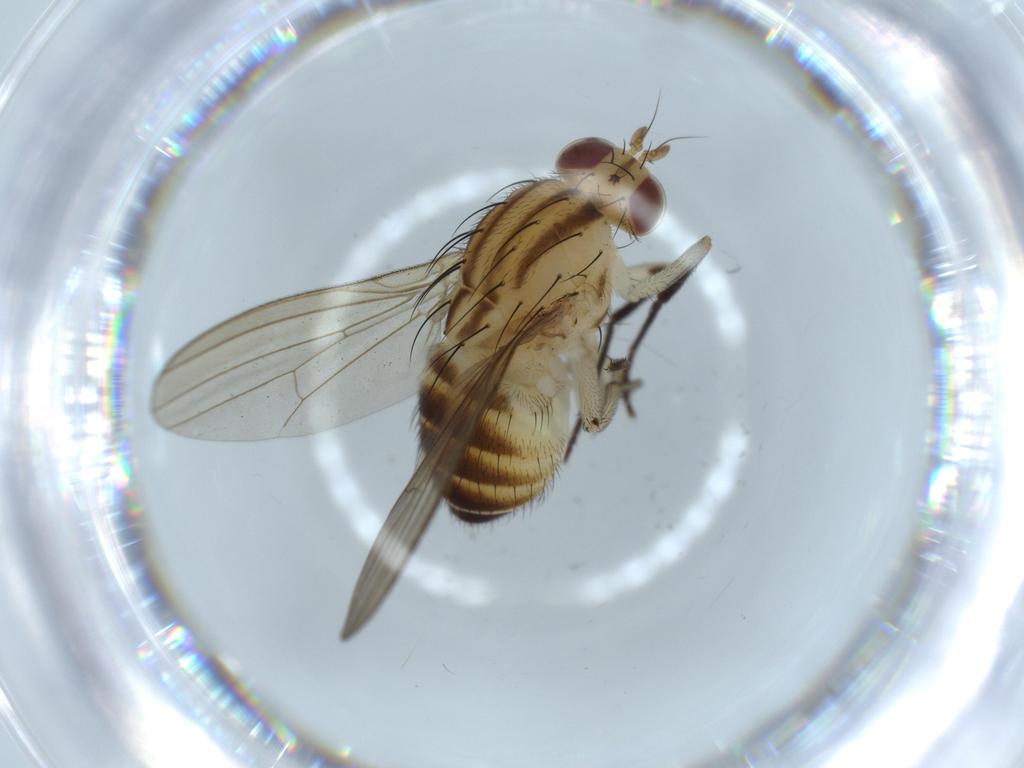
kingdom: Animalia
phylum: Arthropoda
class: Insecta
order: Diptera
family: Lauxaniidae
